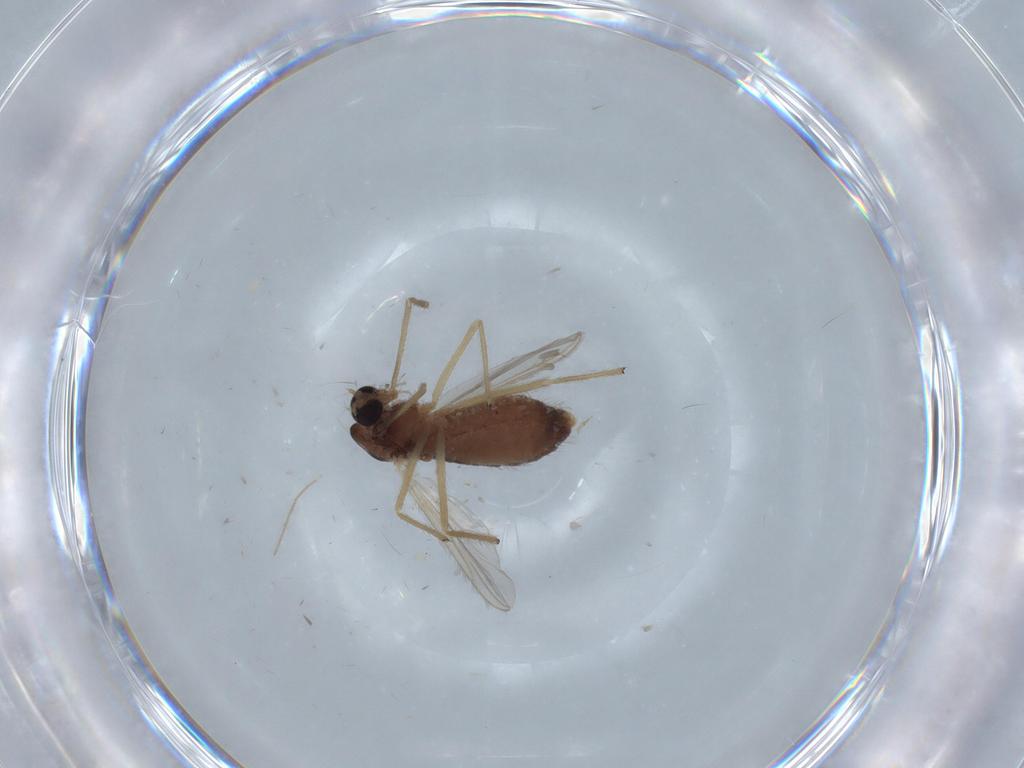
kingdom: Animalia
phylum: Arthropoda
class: Insecta
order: Diptera
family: Chironomidae
